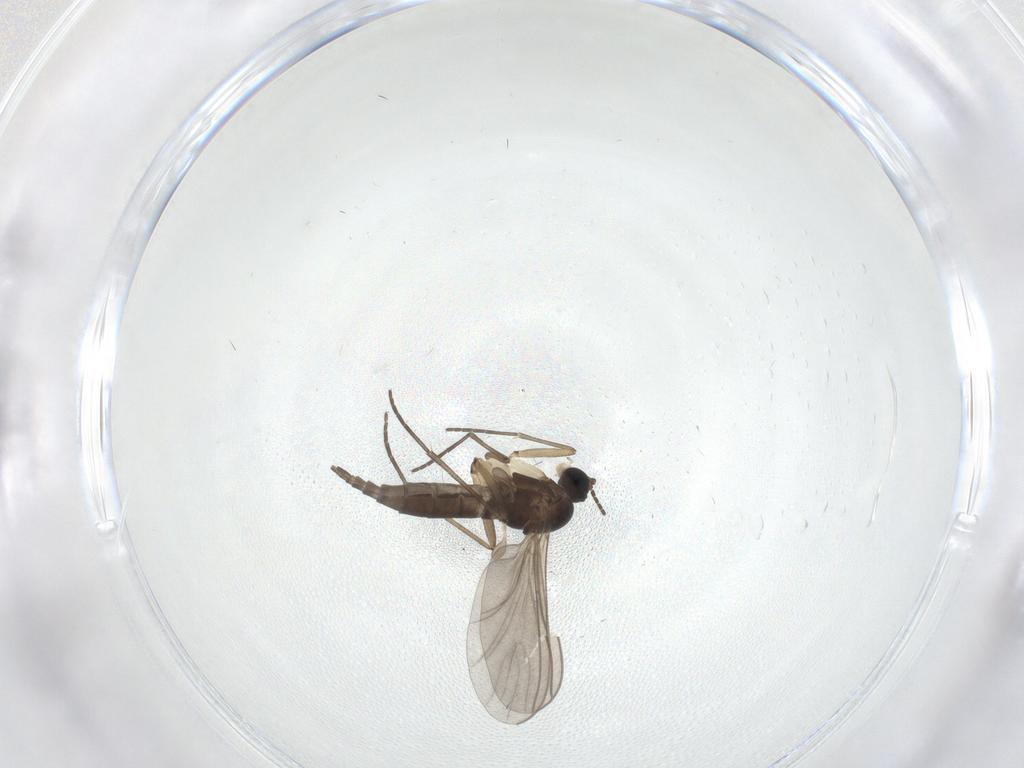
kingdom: Animalia
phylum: Arthropoda
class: Insecta
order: Diptera
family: Sciaridae
